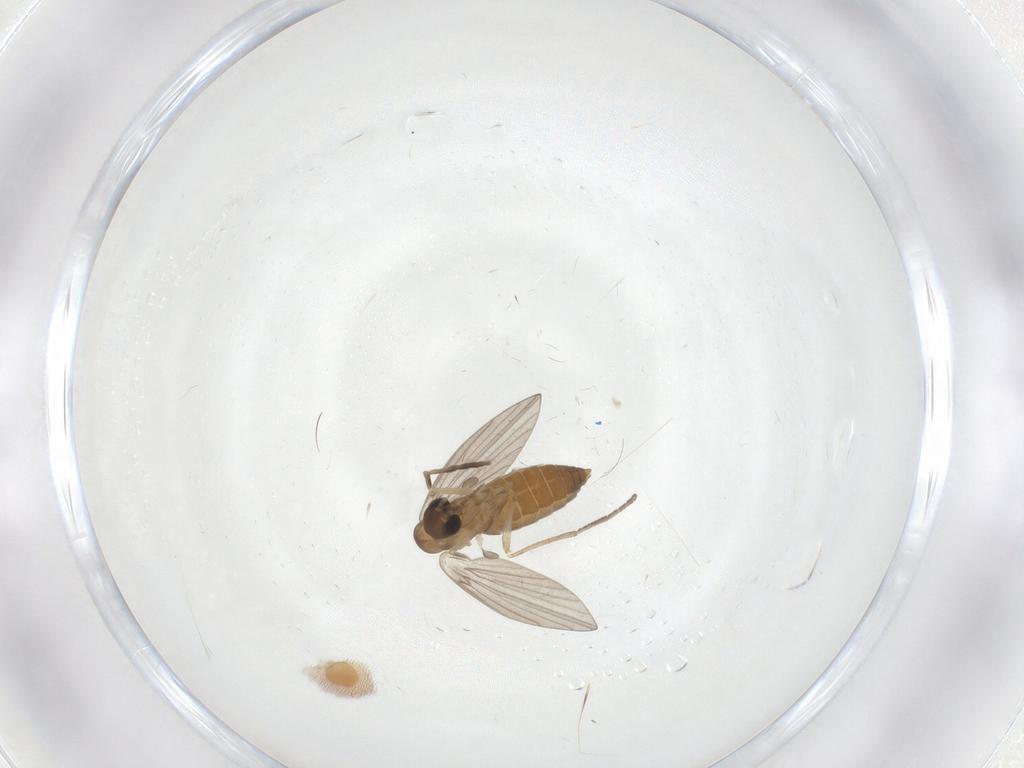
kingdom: Animalia
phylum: Arthropoda
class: Insecta
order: Diptera
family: Cecidomyiidae
